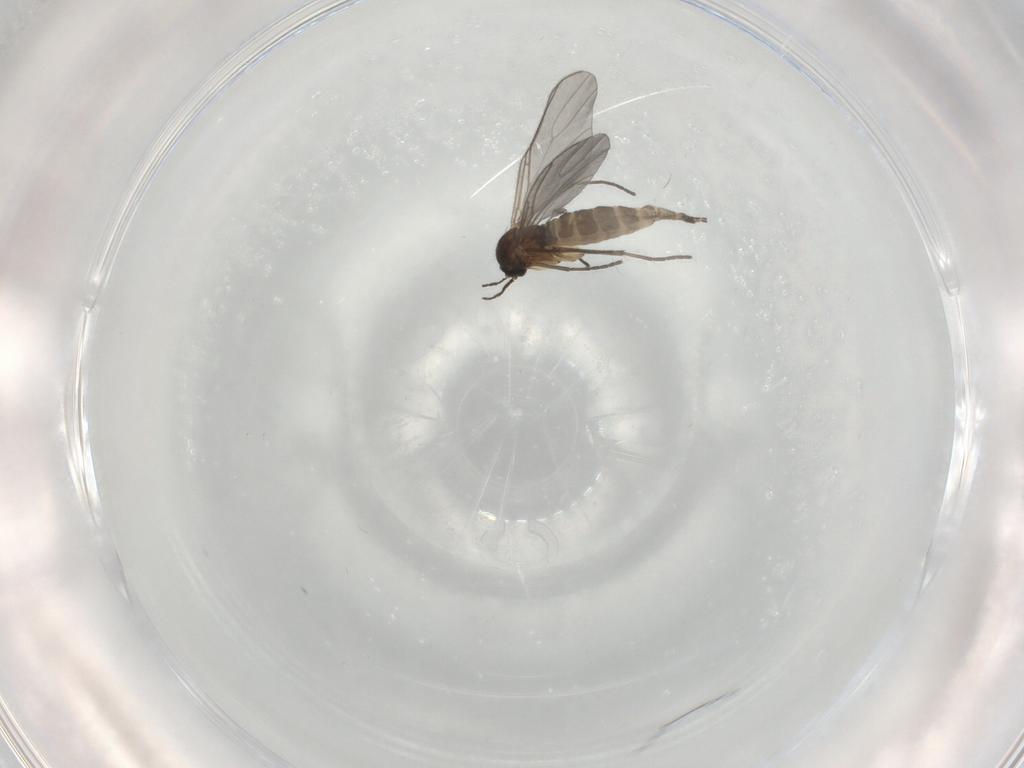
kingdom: Animalia
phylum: Arthropoda
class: Insecta
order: Diptera
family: Sciaridae
